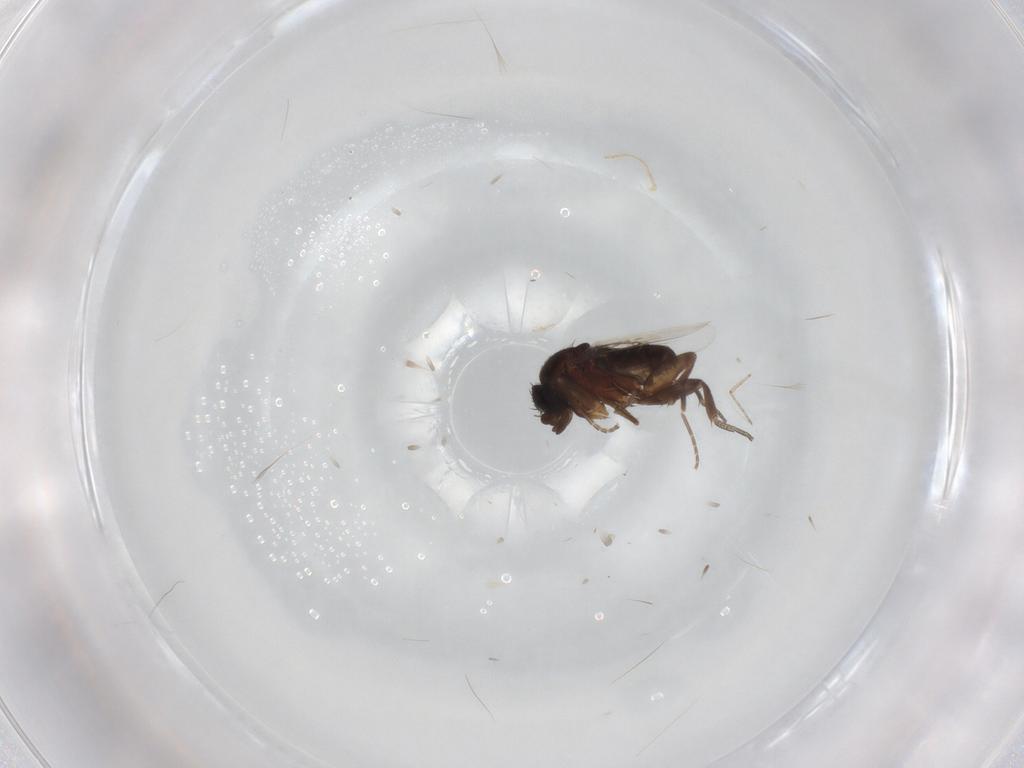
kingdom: Animalia
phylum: Arthropoda
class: Insecta
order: Diptera
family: Phoridae
